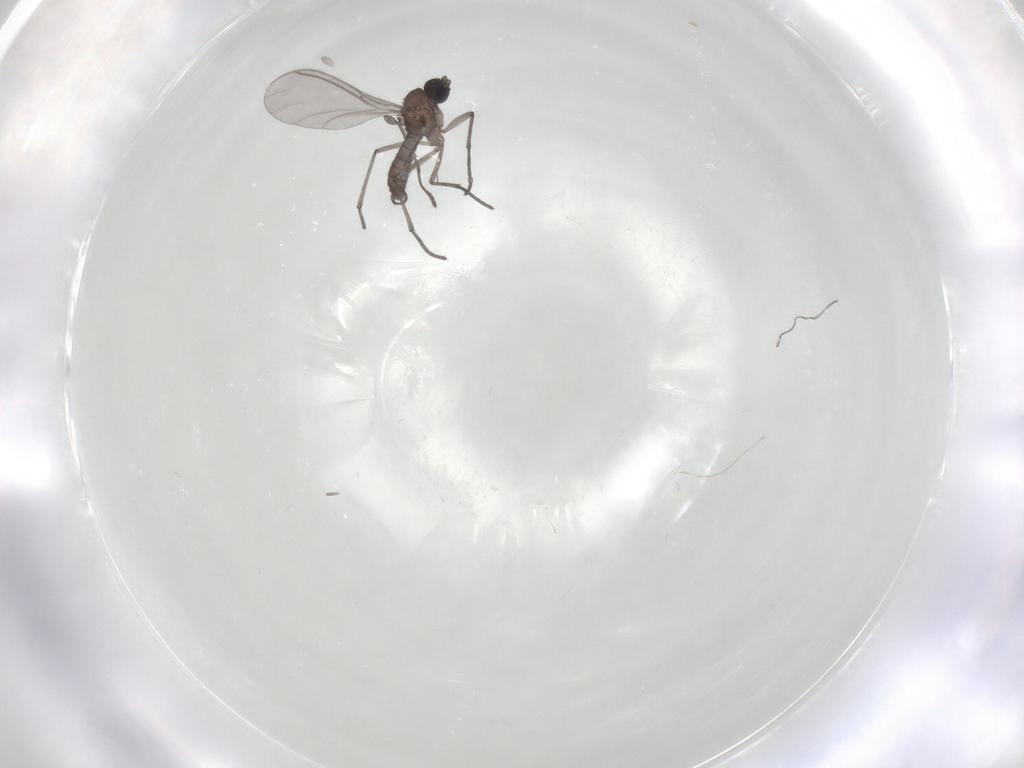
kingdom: Animalia
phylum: Arthropoda
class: Insecta
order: Diptera
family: Sciaridae
